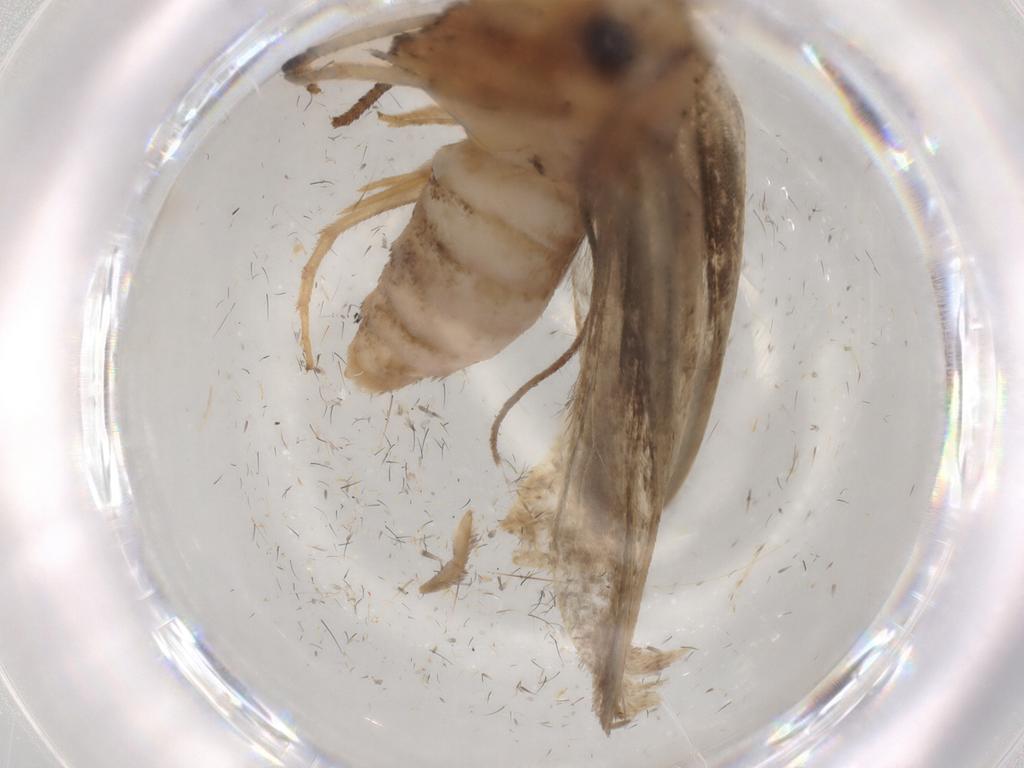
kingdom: Animalia
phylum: Arthropoda
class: Insecta
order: Lepidoptera
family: Yponomeutidae
